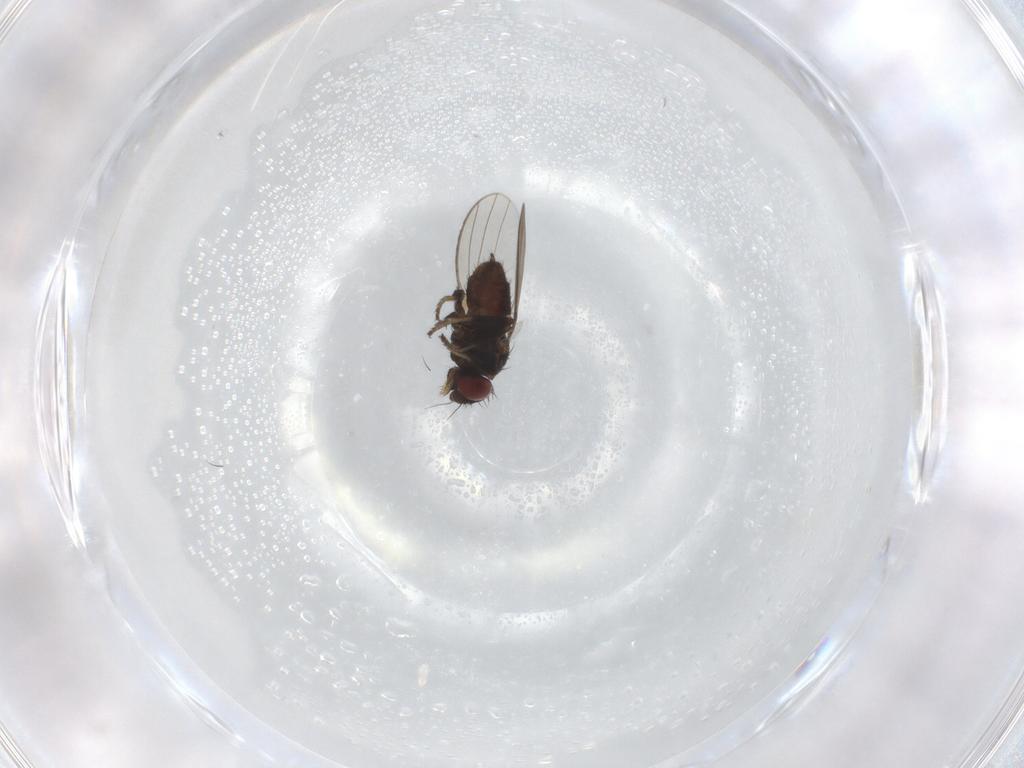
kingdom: Animalia
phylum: Arthropoda
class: Insecta
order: Diptera
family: Milichiidae
